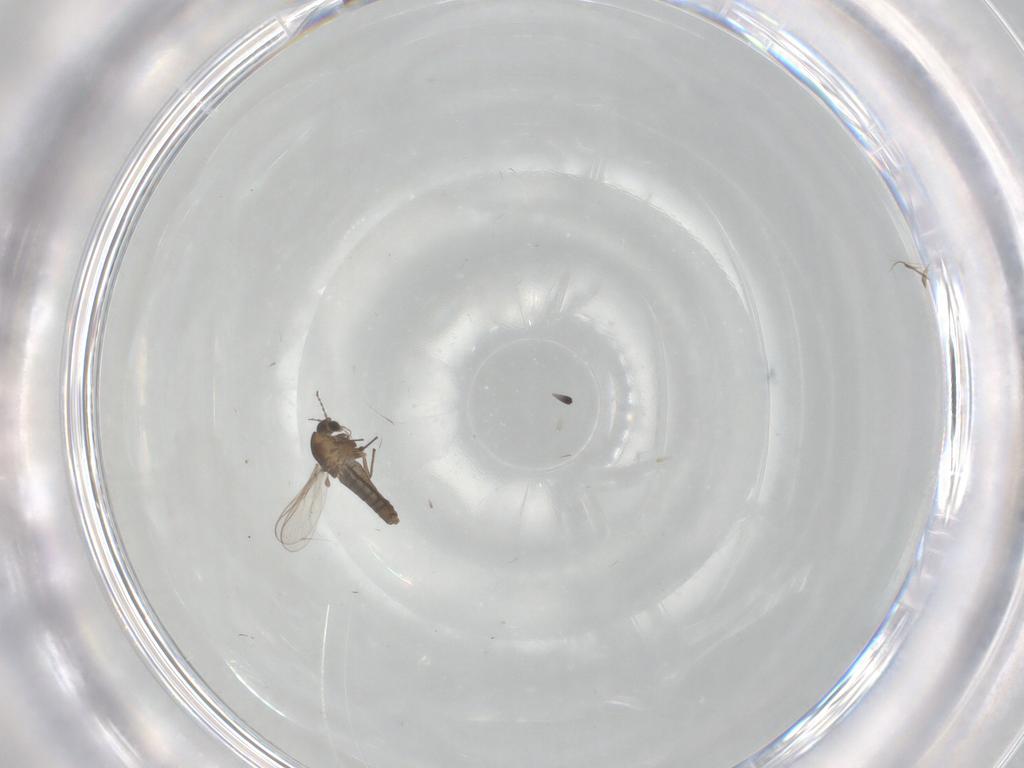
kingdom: Animalia
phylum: Arthropoda
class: Insecta
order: Diptera
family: Chironomidae
